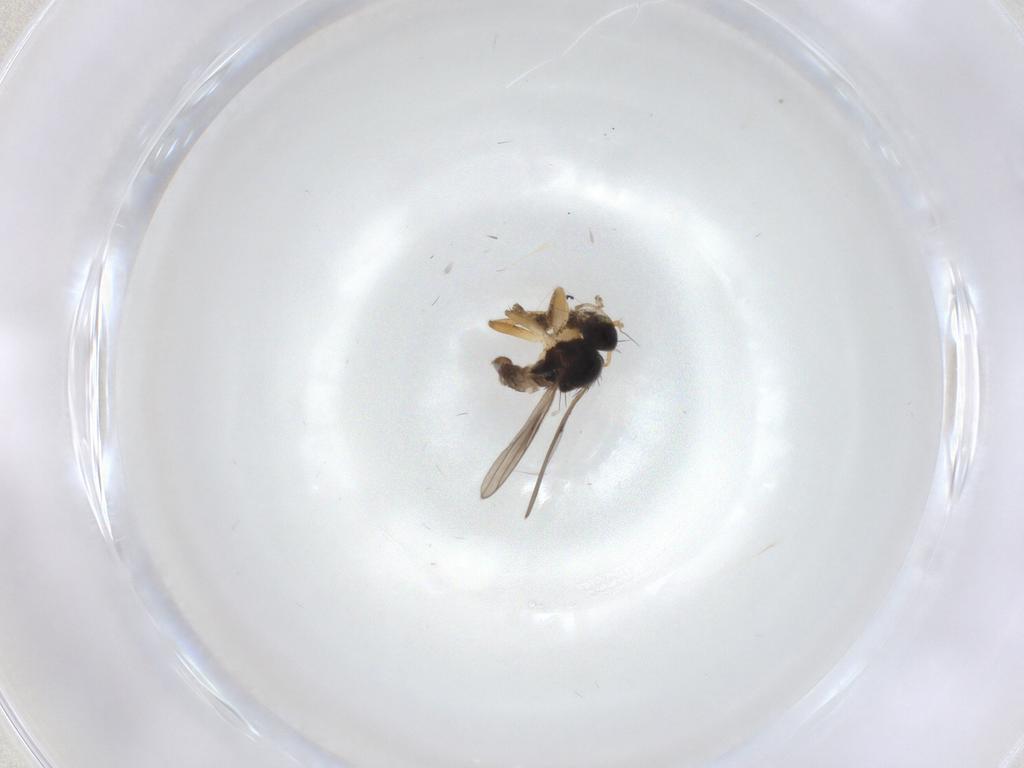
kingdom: Animalia
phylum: Arthropoda
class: Insecta
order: Diptera
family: Hybotidae
